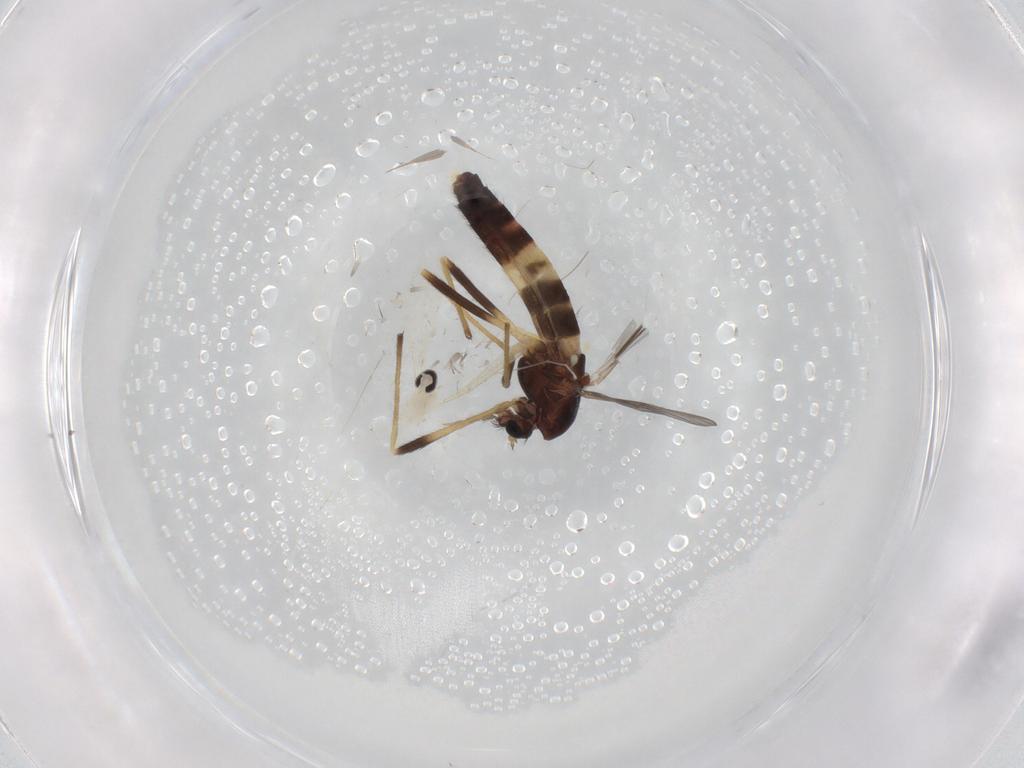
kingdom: Animalia
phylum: Arthropoda
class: Insecta
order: Diptera
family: Chironomidae
